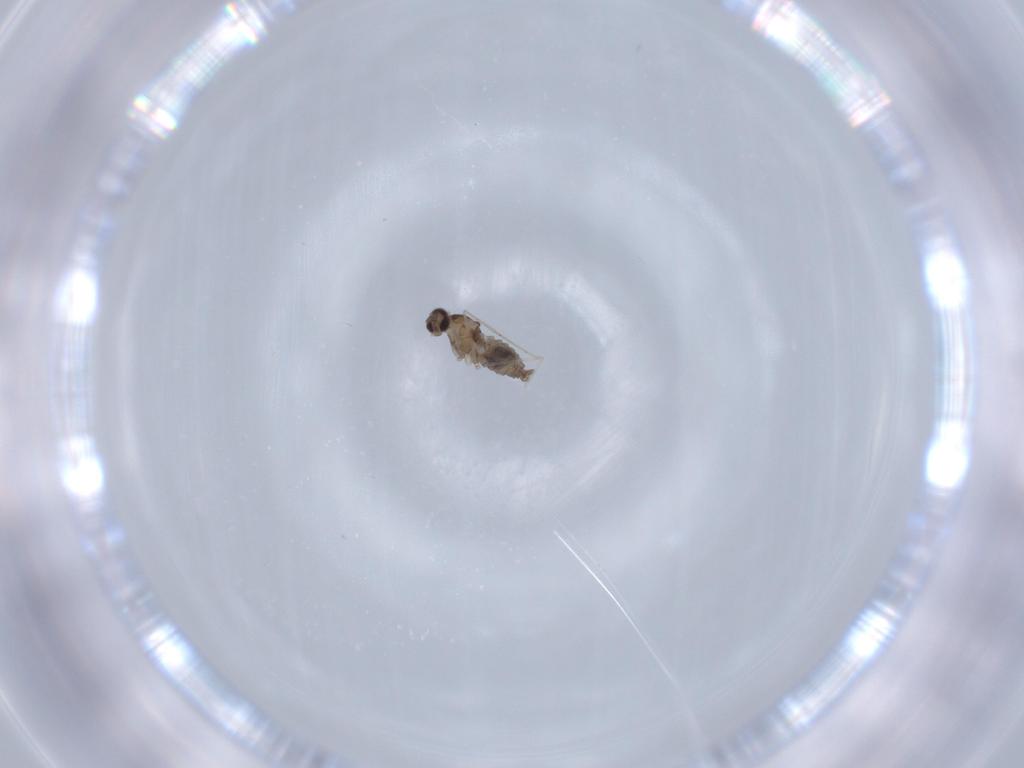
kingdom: Animalia
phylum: Arthropoda
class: Insecta
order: Diptera
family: Cecidomyiidae
